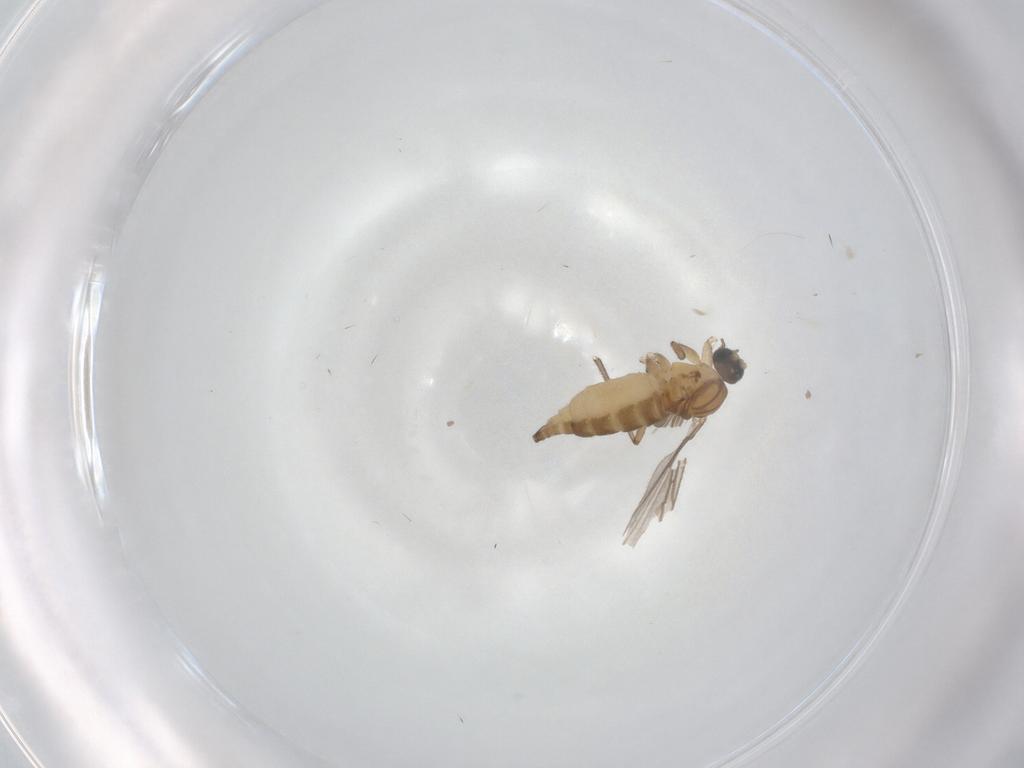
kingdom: Animalia
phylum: Arthropoda
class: Insecta
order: Diptera
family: Chironomidae
